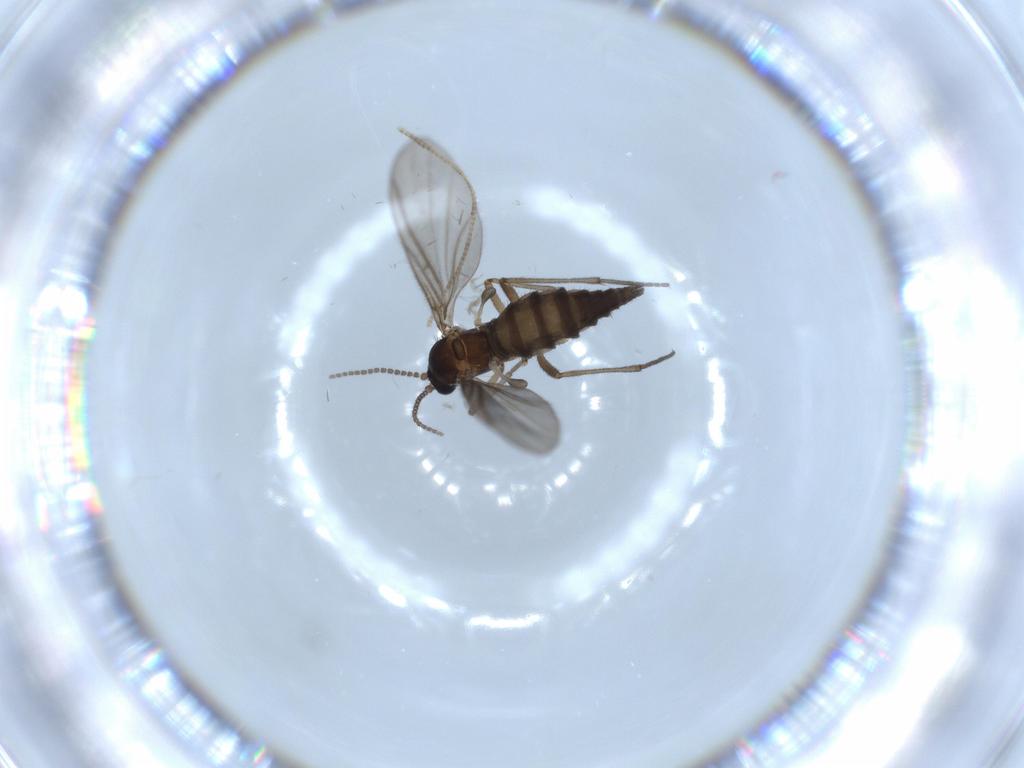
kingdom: Animalia
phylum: Arthropoda
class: Insecta
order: Diptera
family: Sciaridae
